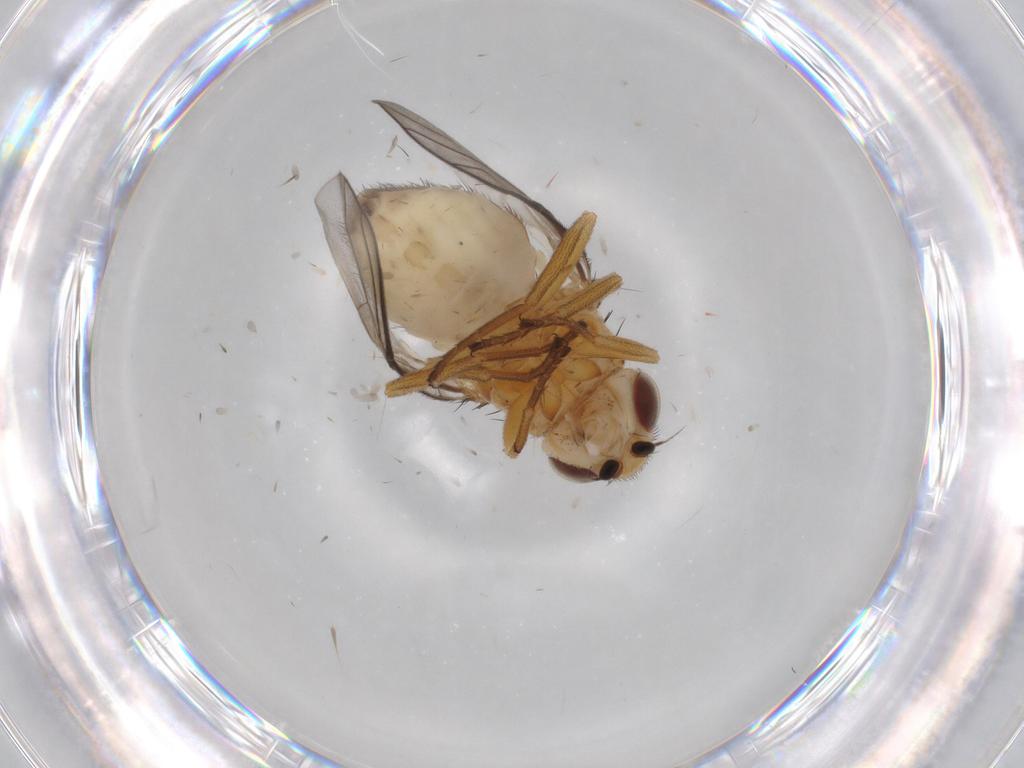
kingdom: Animalia
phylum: Arthropoda
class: Insecta
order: Diptera
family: Chloropidae
